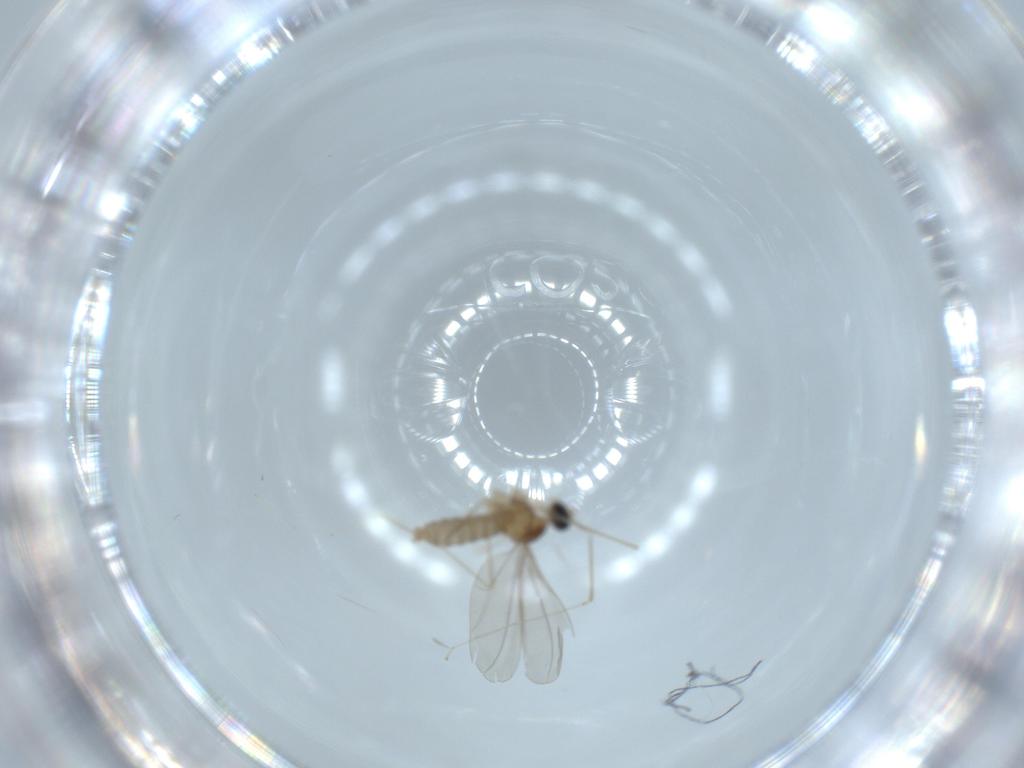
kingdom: Animalia
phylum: Arthropoda
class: Insecta
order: Diptera
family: Cecidomyiidae
